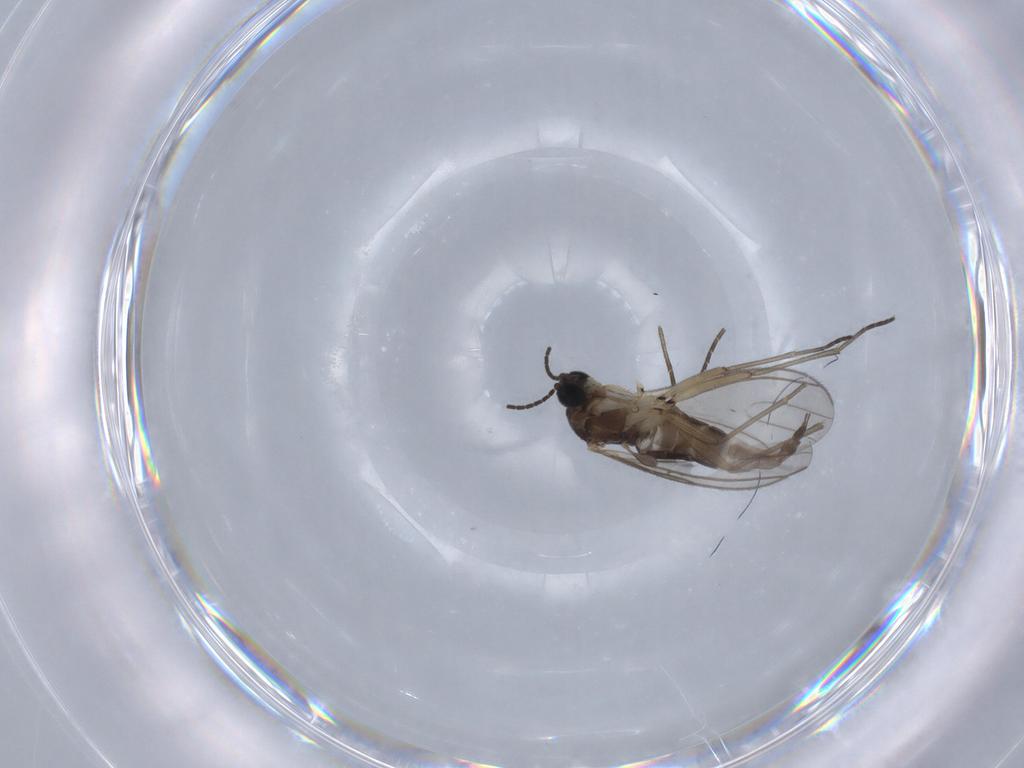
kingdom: Animalia
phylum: Arthropoda
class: Insecta
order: Diptera
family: Sciaridae
